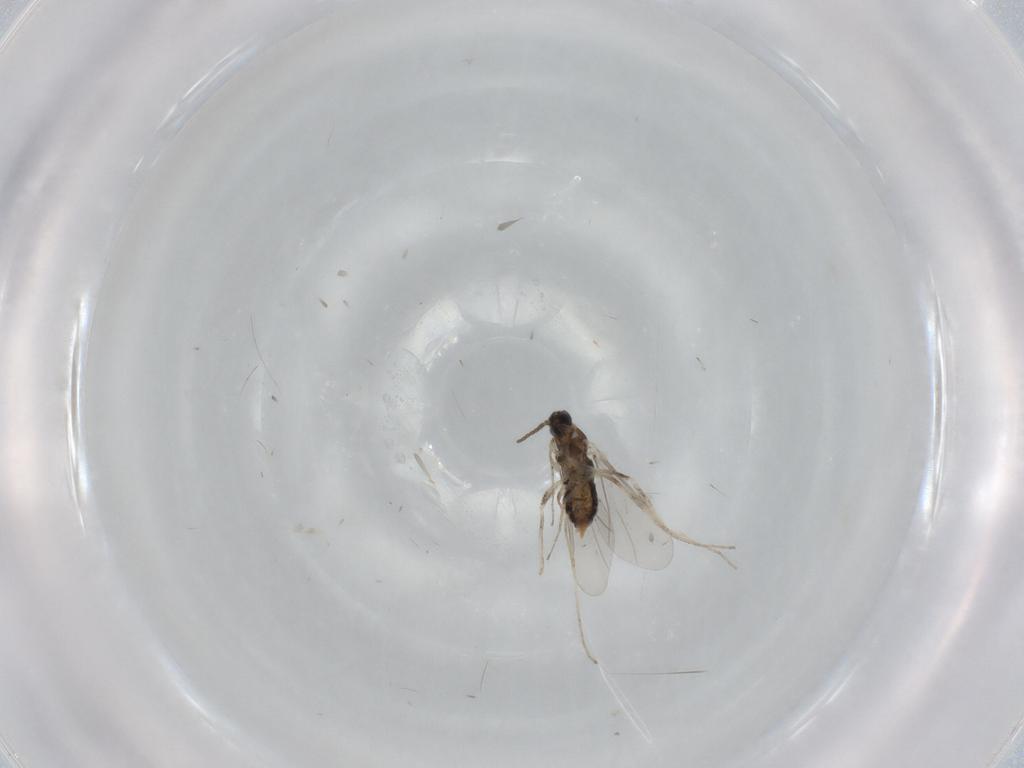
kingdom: Animalia
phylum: Arthropoda
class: Insecta
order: Diptera
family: Cecidomyiidae
